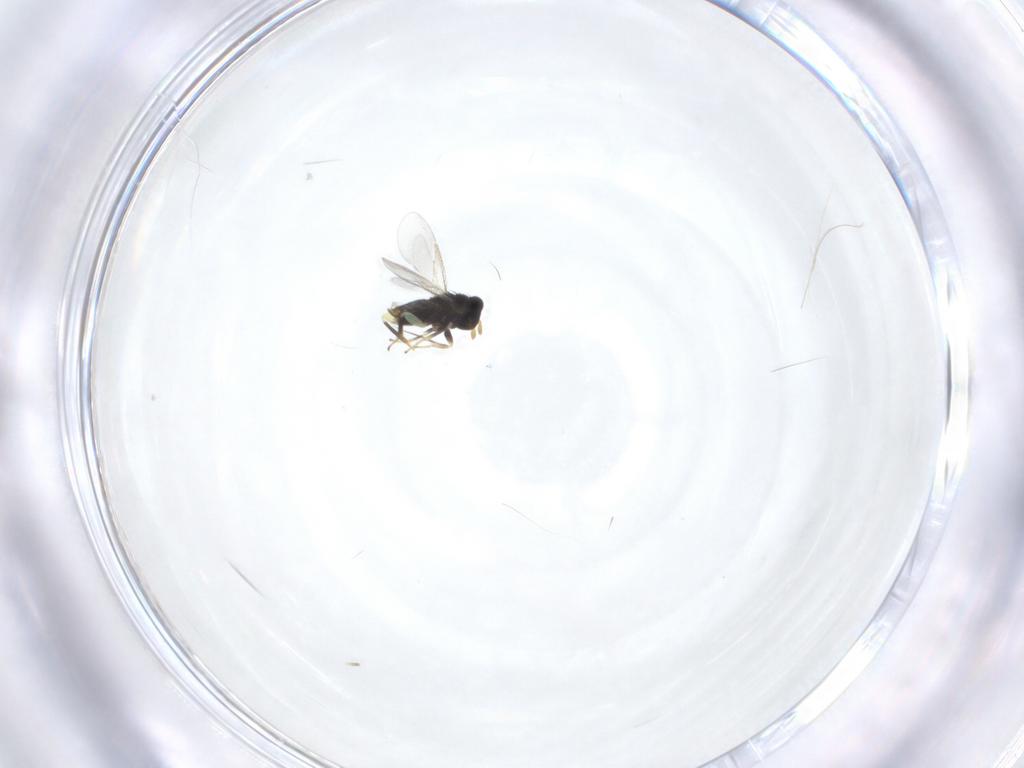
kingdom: Animalia
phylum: Arthropoda
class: Insecta
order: Hymenoptera
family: Aphelinidae
